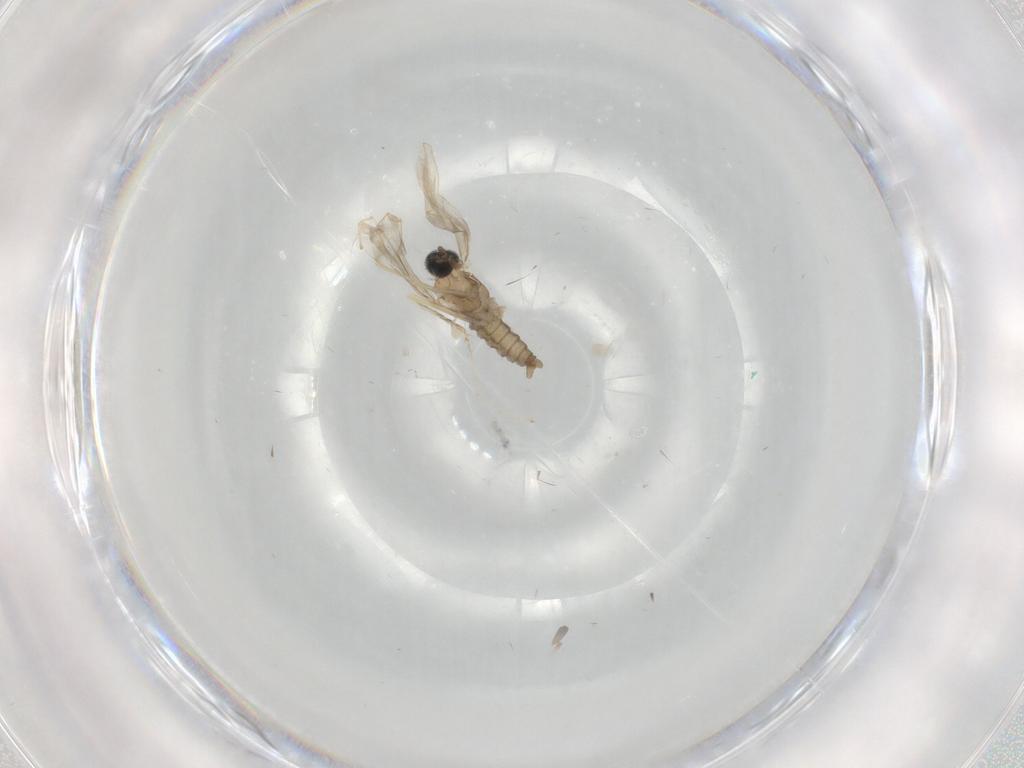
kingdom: Animalia
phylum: Arthropoda
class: Insecta
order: Diptera
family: Cecidomyiidae
